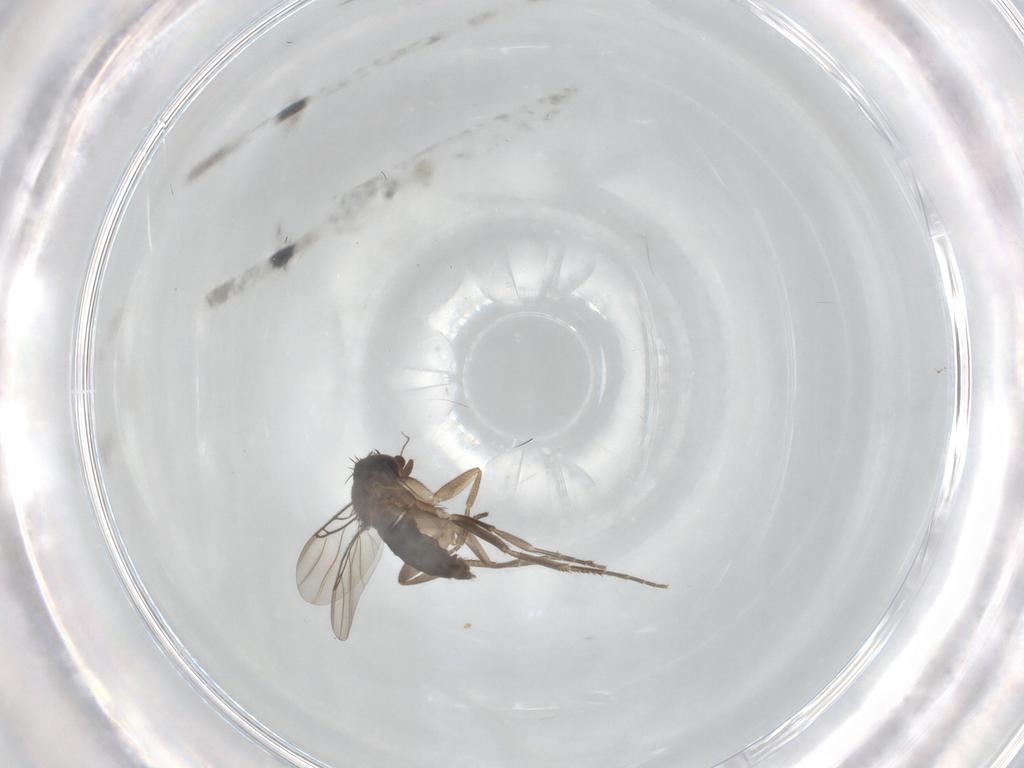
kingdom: Animalia
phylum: Arthropoda
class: Insecta
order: Diptera
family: Phoridae
